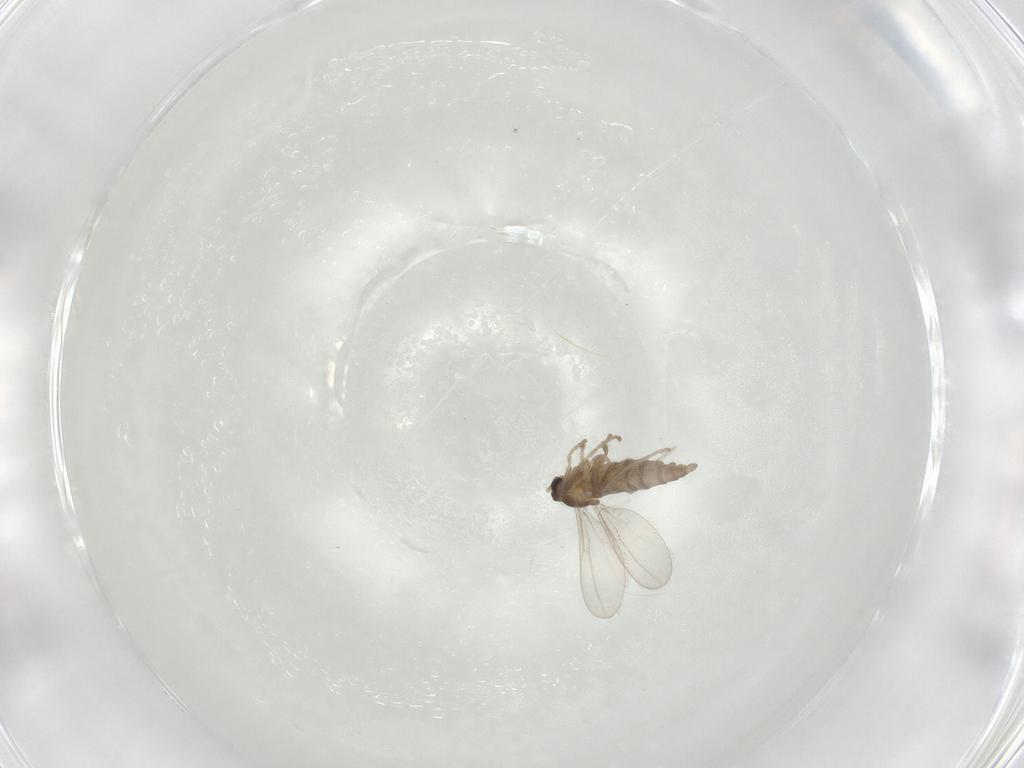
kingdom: Animalia
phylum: Arthropoda
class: Insecta
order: Diptera
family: Cecidomyiidae
